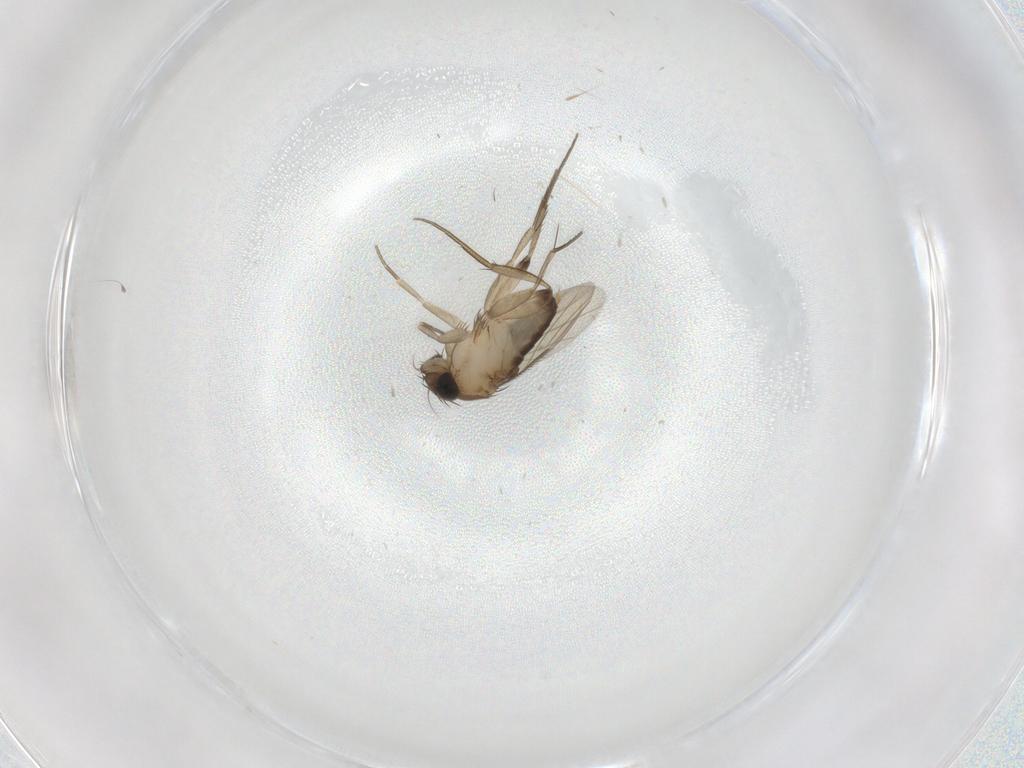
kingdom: Animalia
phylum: Arthropoda
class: Insecta
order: Diptera
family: Phoridae
